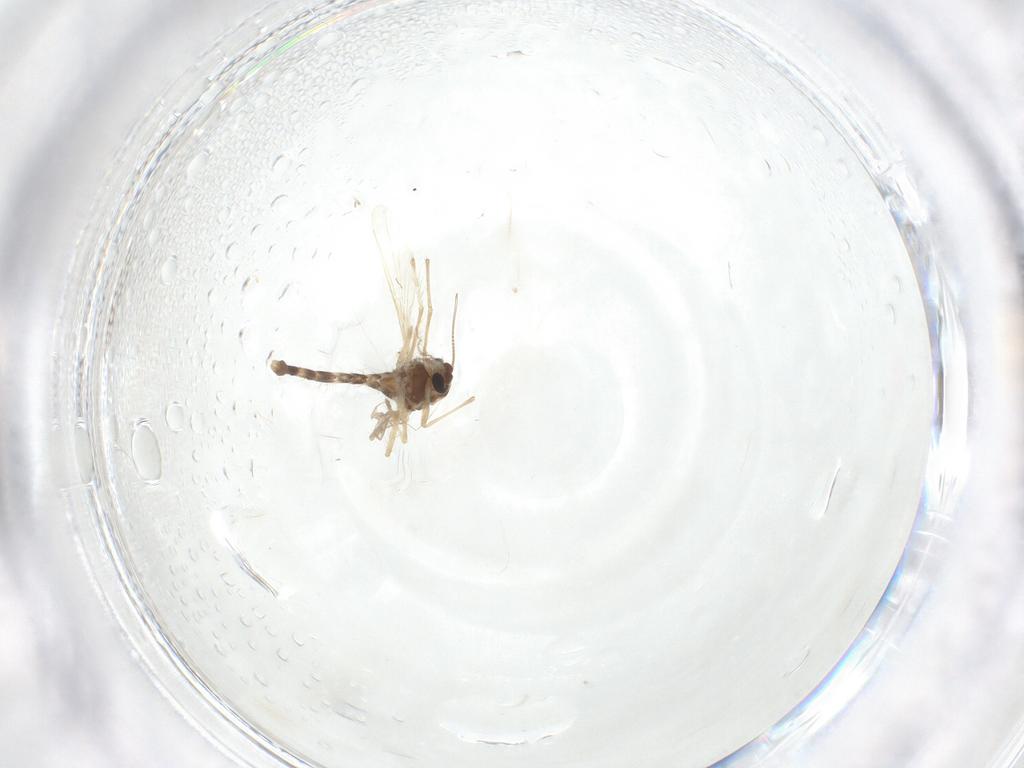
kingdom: Animalia
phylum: Arthropoda
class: Insecta
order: Diptera
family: Chironomidae
